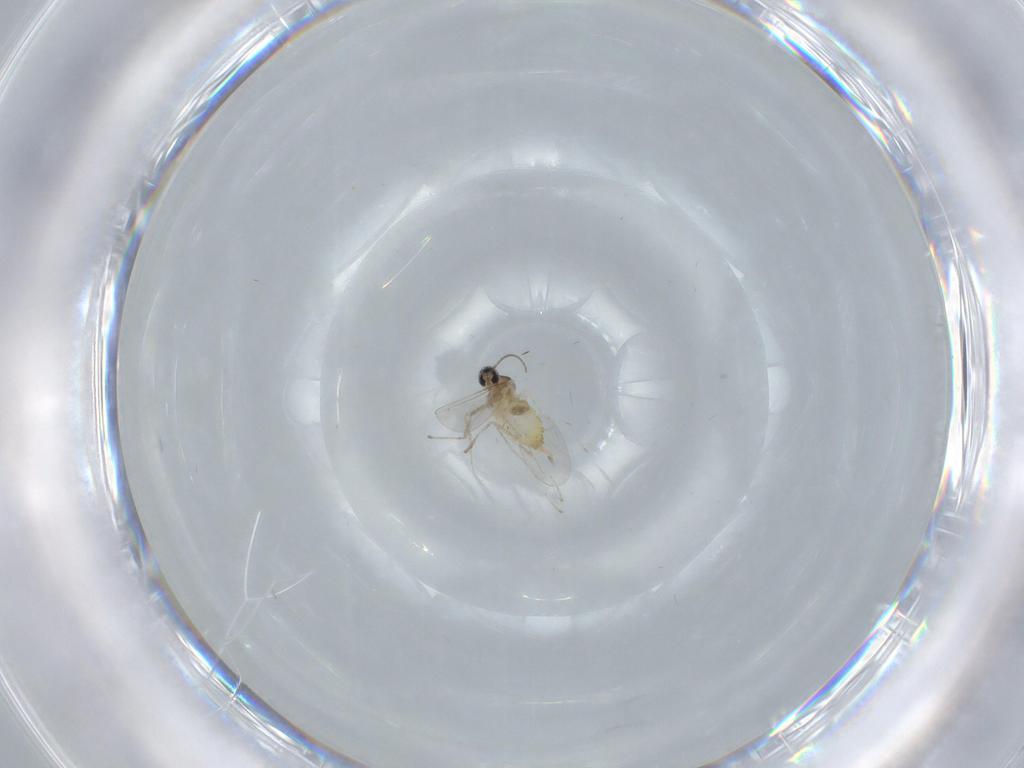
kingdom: Animalia
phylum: Arthropoda
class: Insecta
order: Diptera
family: Cecidomyiidae
